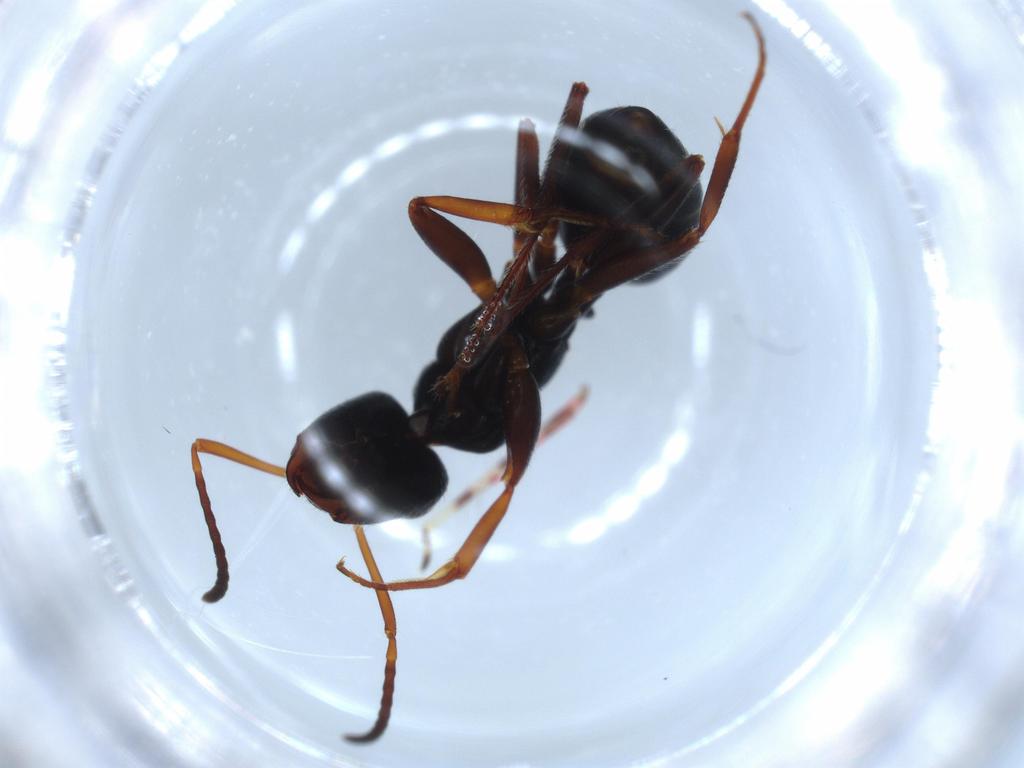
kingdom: Animalia
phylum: Arthropoda
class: Insecta
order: Hymenoptera
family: Formicidae
